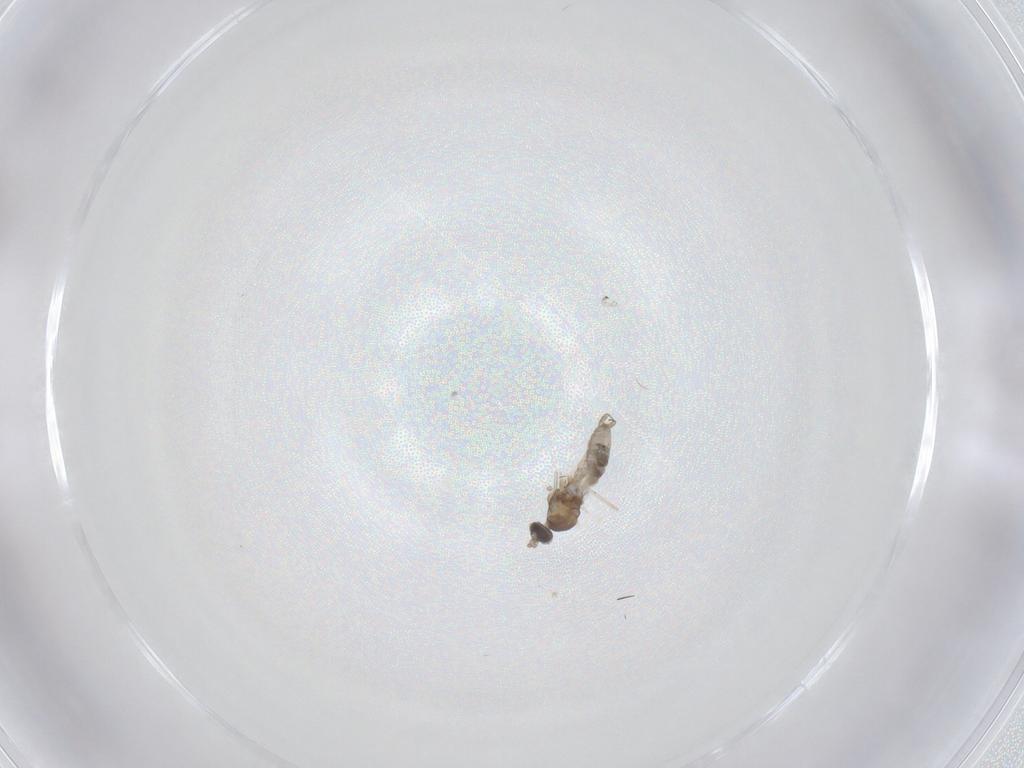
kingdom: Animalia
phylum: Arthropoda
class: Insecta
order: Diptera
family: Cecidomyiidae
